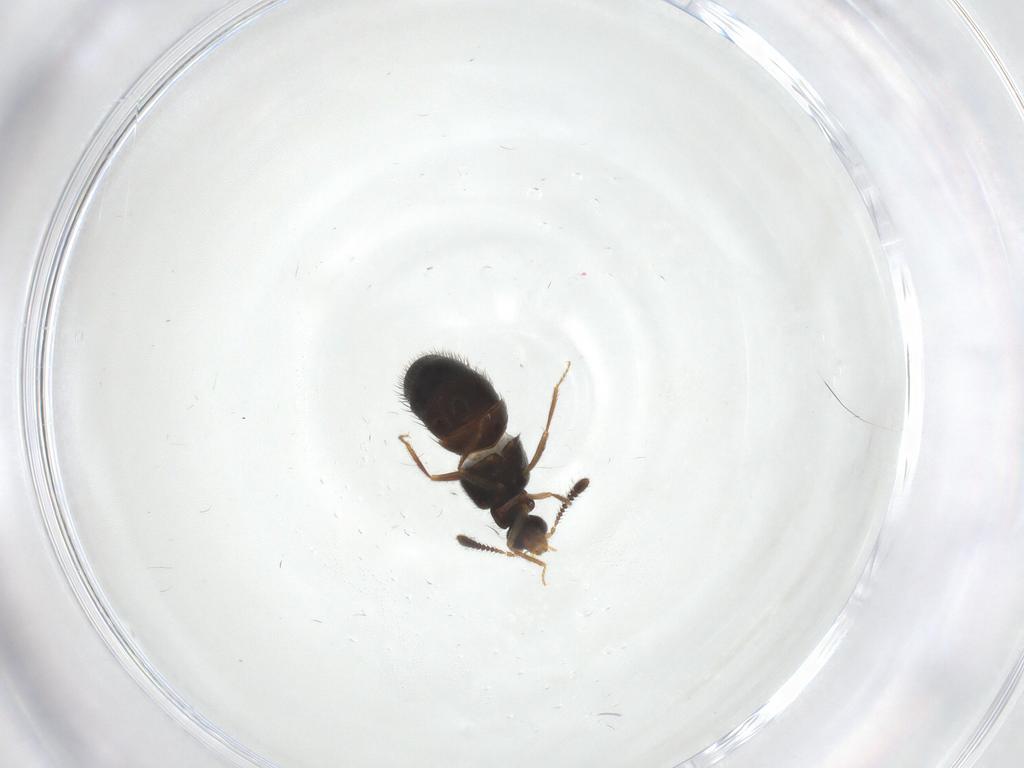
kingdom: Animalia
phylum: Arthropoda
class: Insecta
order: Coleoptera
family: Staphylinidae
